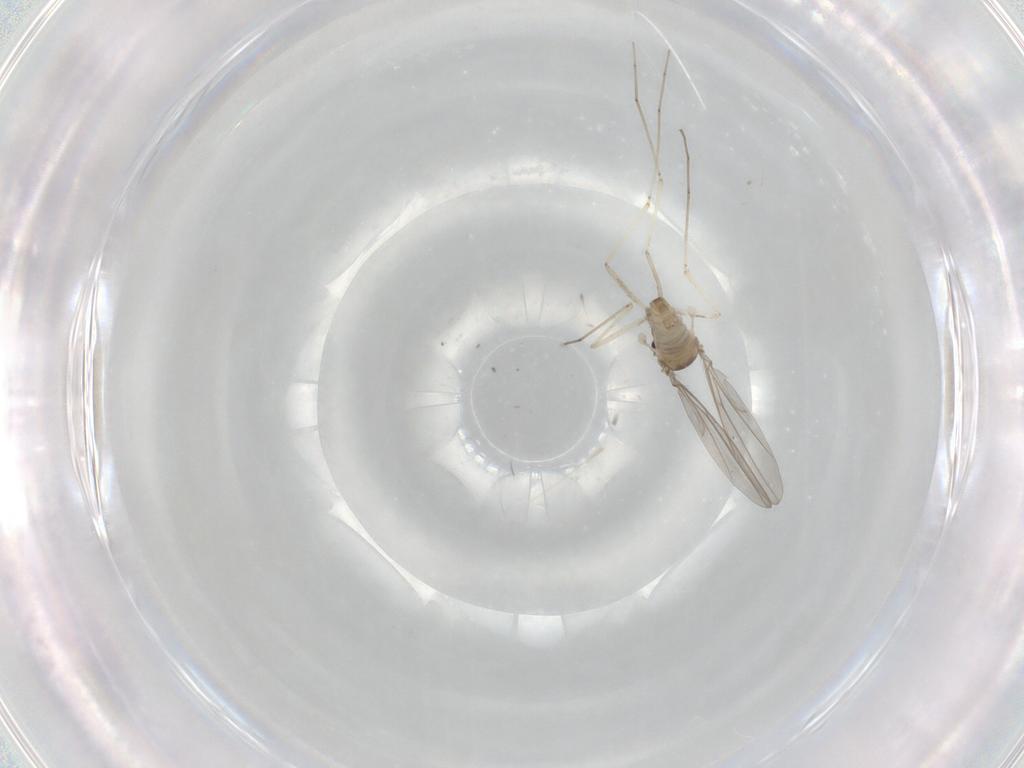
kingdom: Animalia
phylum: Arthropoda
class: Insecta
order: Diptera
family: Cecidomyiidae
